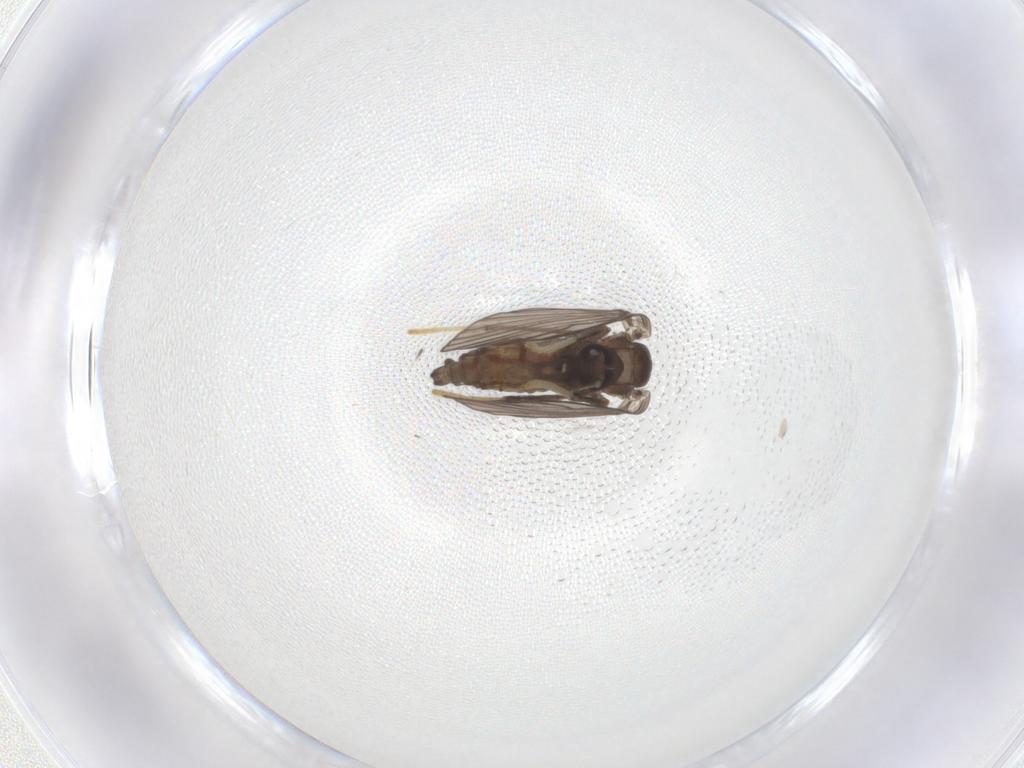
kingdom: Animalia
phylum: Arthropoda
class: Insecta
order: Diptera
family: Psychodidae
